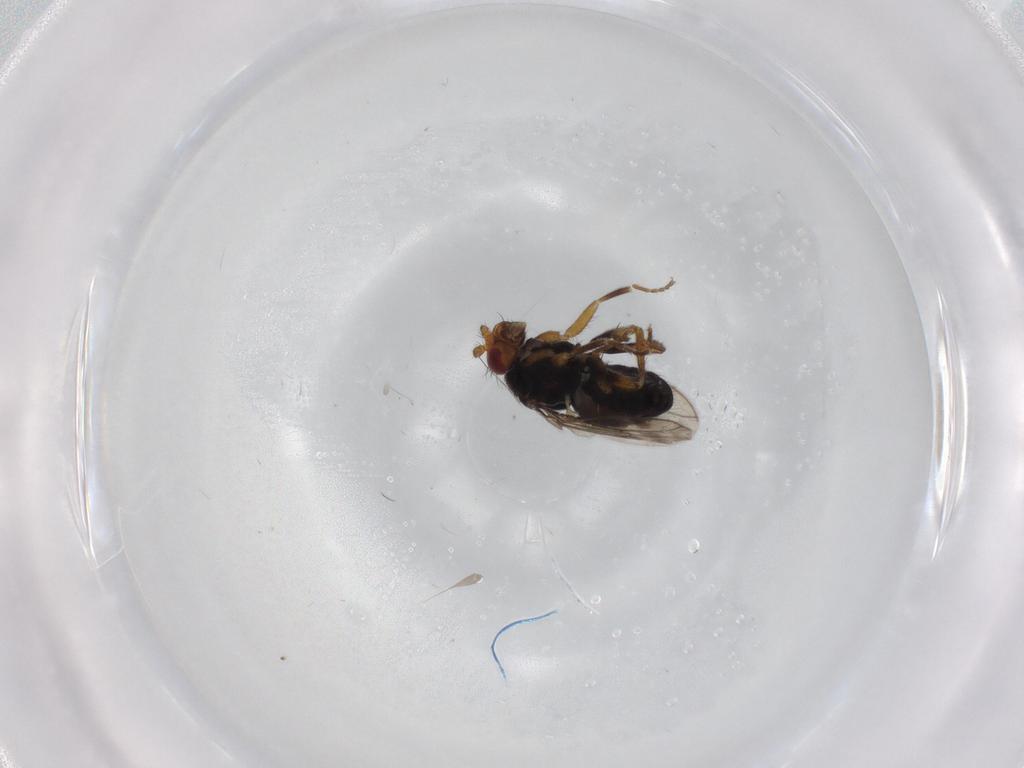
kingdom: Animalia
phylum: Arthropoda
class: Insecta
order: Diptera
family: Sphaeroceridae
